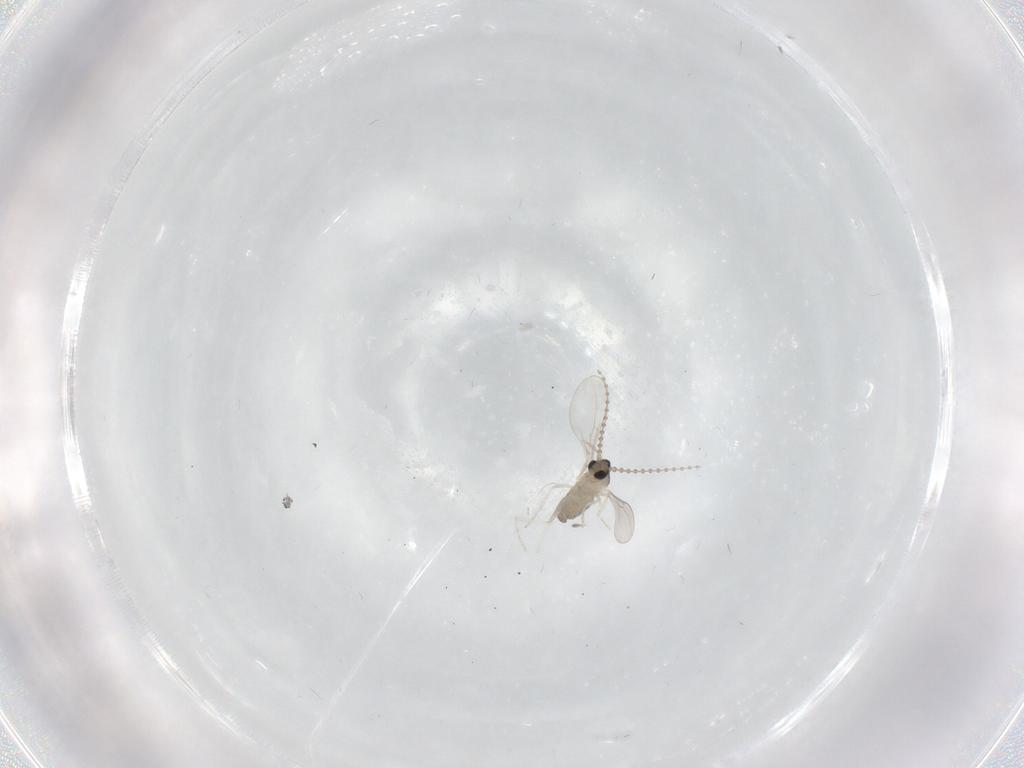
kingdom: Animalia
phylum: Arthropoda
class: Insecta
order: Diptera
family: Cecidomyiidae
